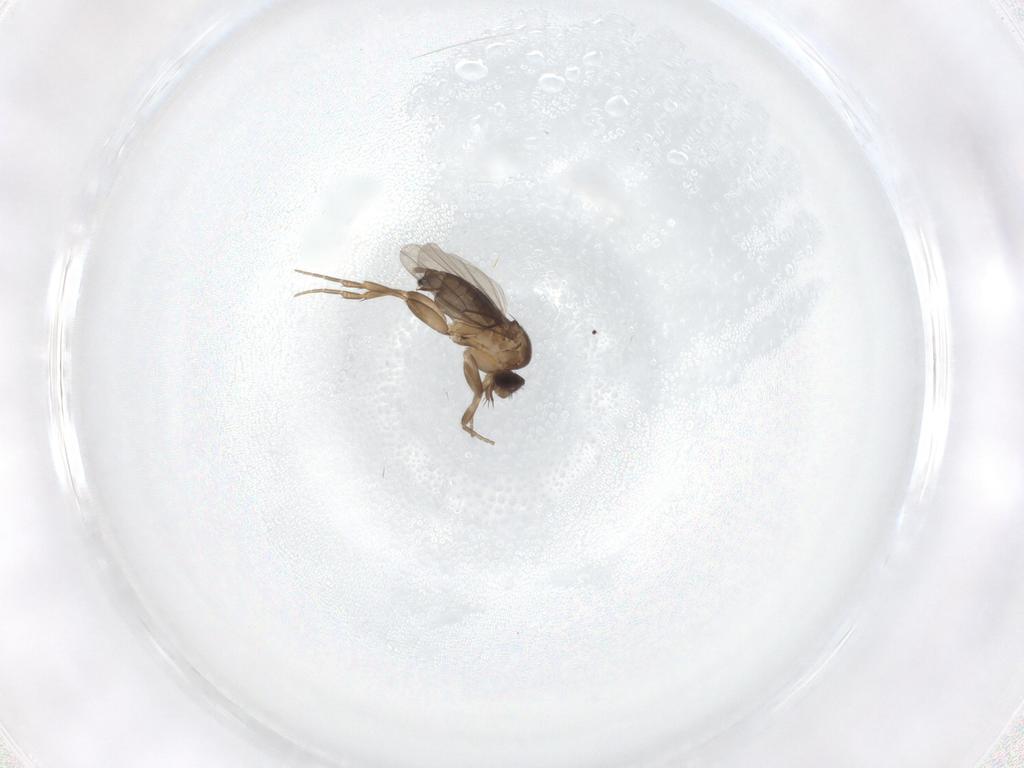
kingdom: Animalia
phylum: Arthropoda
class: Insecta
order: Diptera
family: Phoridae
